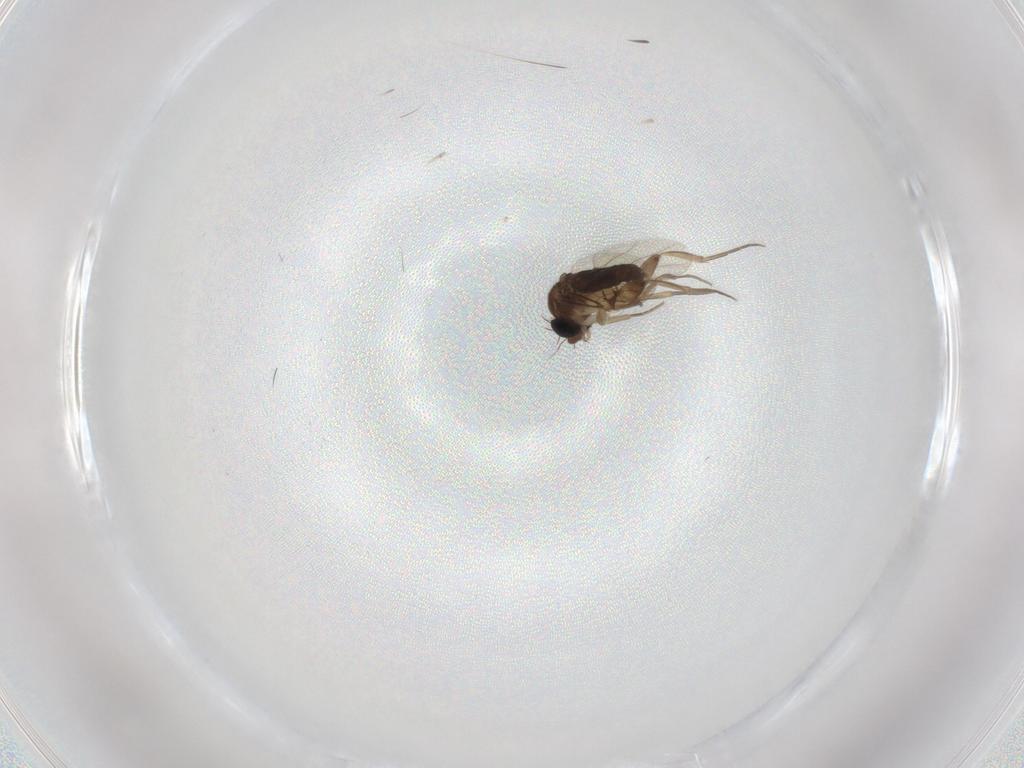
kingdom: Animalia
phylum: Arthropoda
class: Insecta
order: Diptera
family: Phoridae
